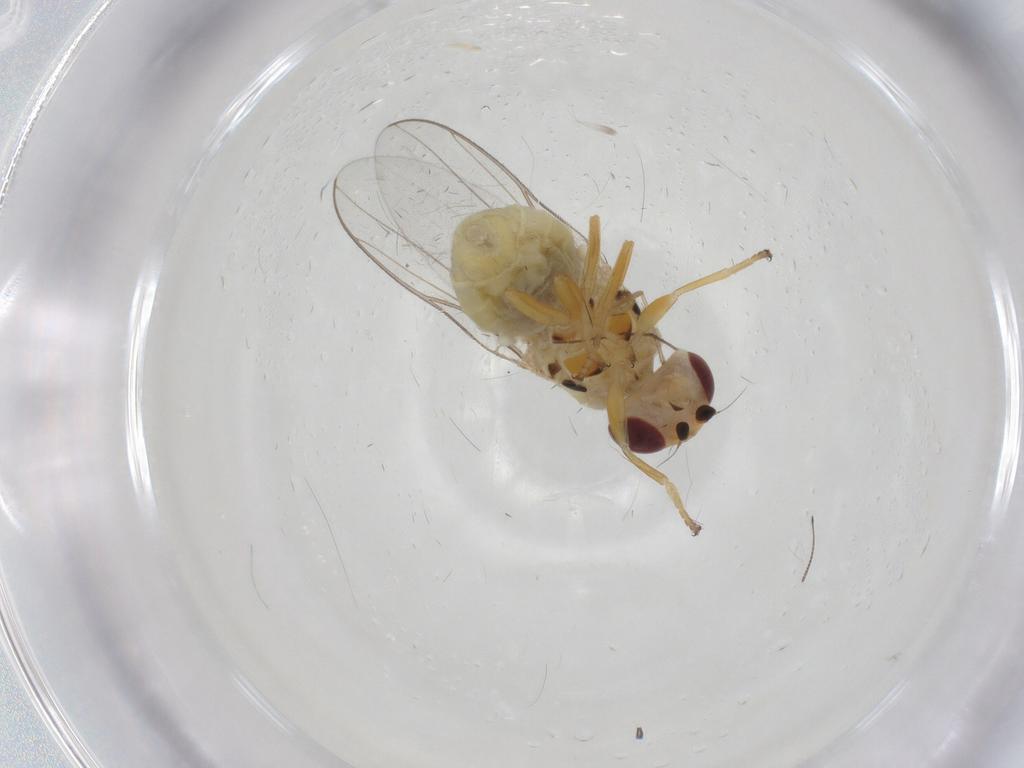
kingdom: Animalia
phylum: Arthropoda
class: Insecta
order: Diptera
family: Chloropidae
